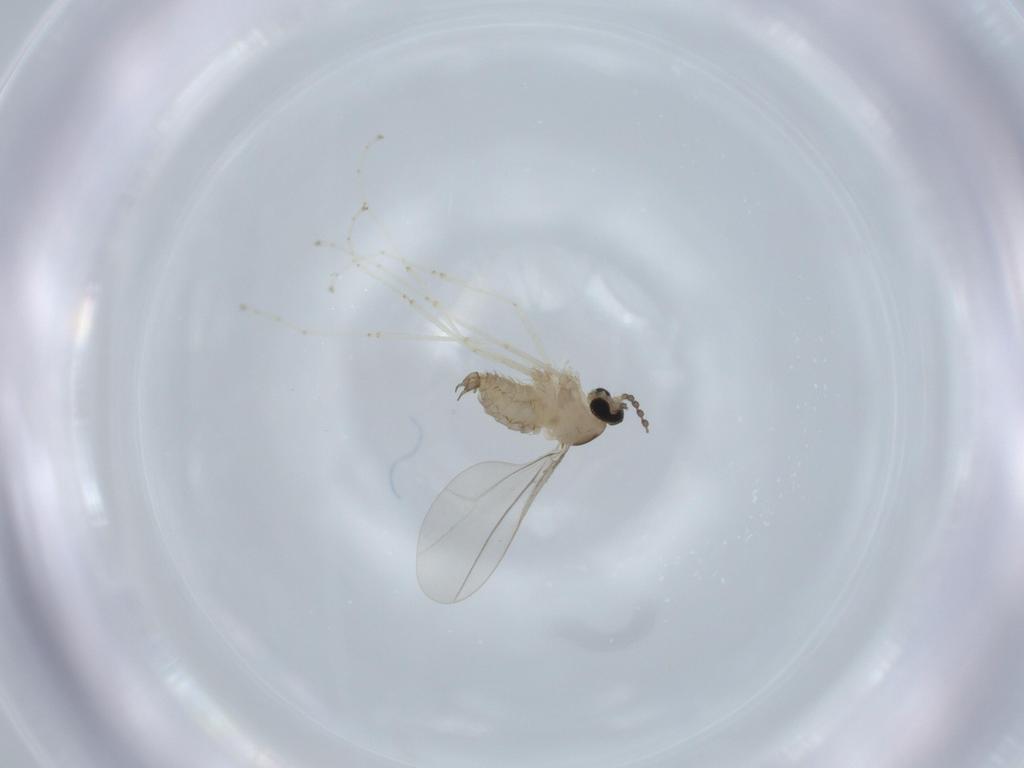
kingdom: Animalia
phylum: Arthropoda
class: Insecta
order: Diptera
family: Cecidomyiidae
